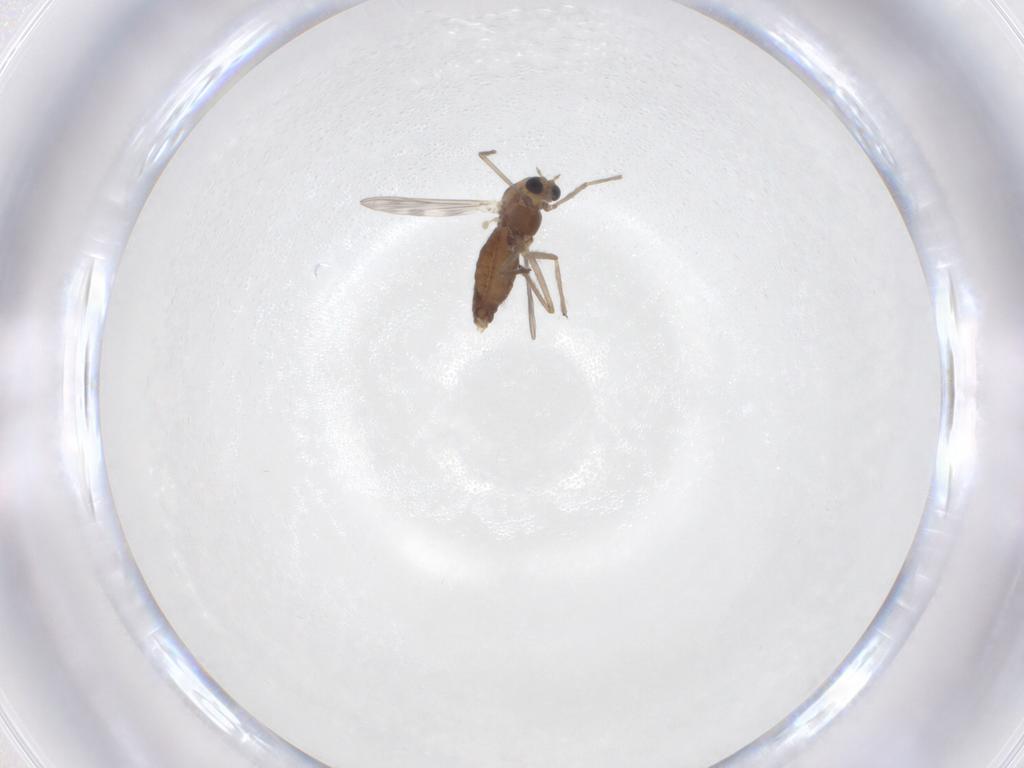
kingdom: Animalia
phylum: Arthropoda
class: Insecta
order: Diptera
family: Chironomidae
